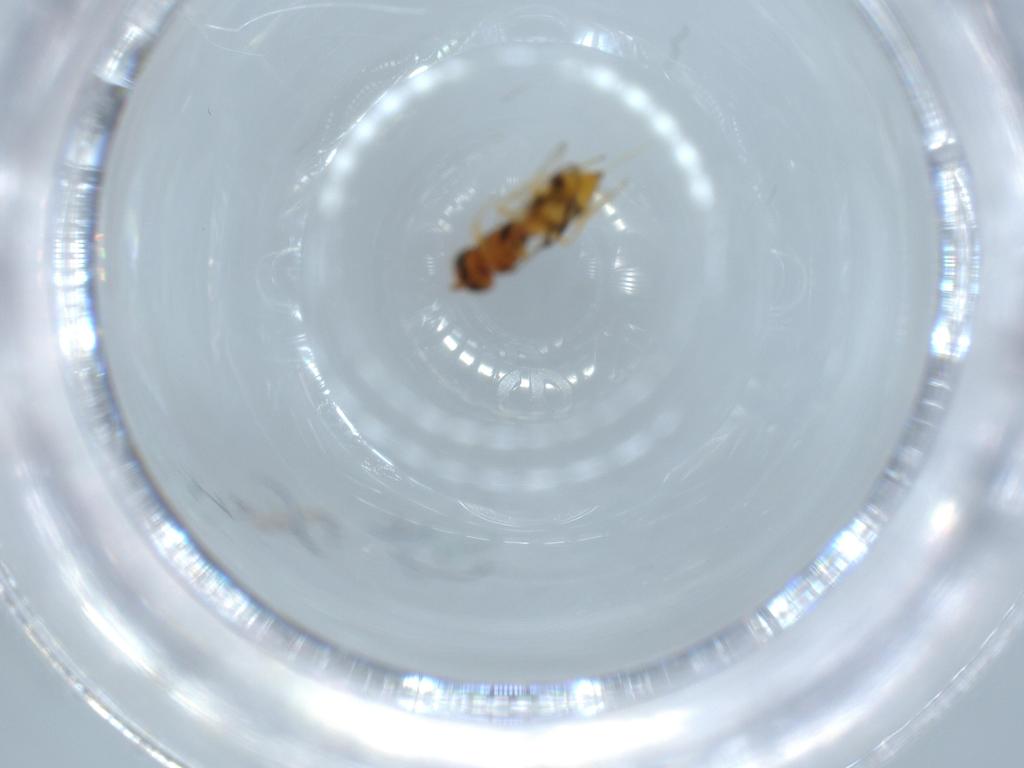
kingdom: Animalia
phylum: Arthropoda
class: Insecta
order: Hymenoptera
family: Scelionidae
